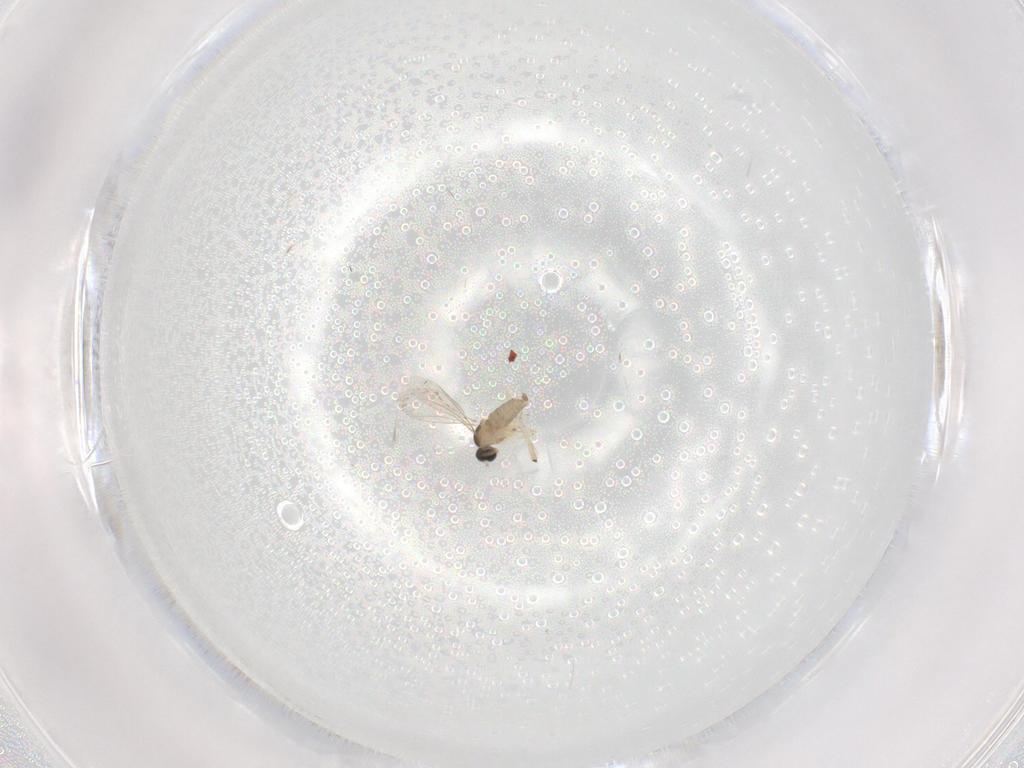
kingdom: Animalia
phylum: Arthropoda
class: Insecta
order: Diptera
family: Cecidomyiidae
